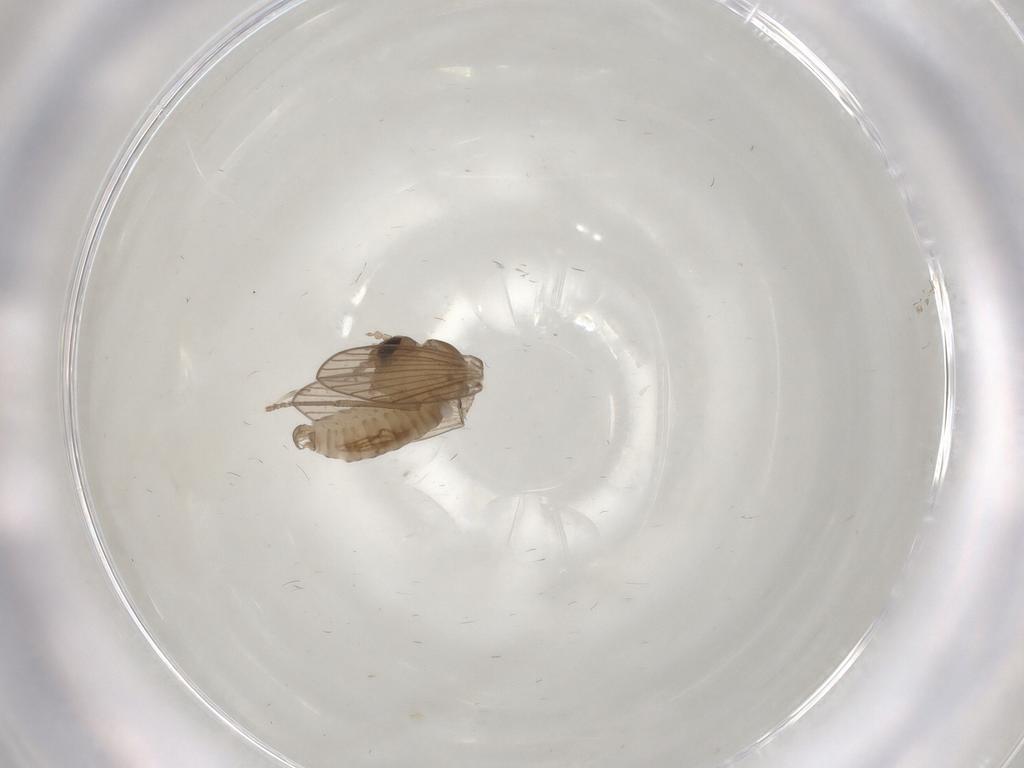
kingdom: Animalia
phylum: Arthropoda
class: Insecta
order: Diptera
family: Psychodidae
